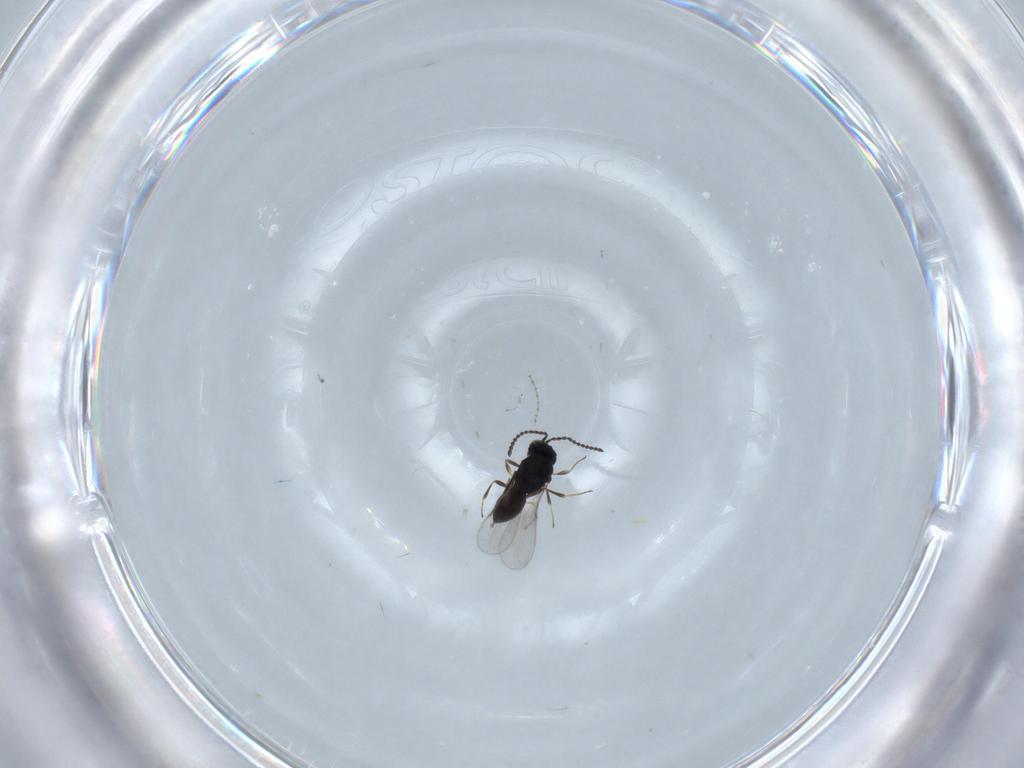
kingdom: Animalia
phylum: Arthropoda
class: Insecta
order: Hymenoptera
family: Scelionidae
